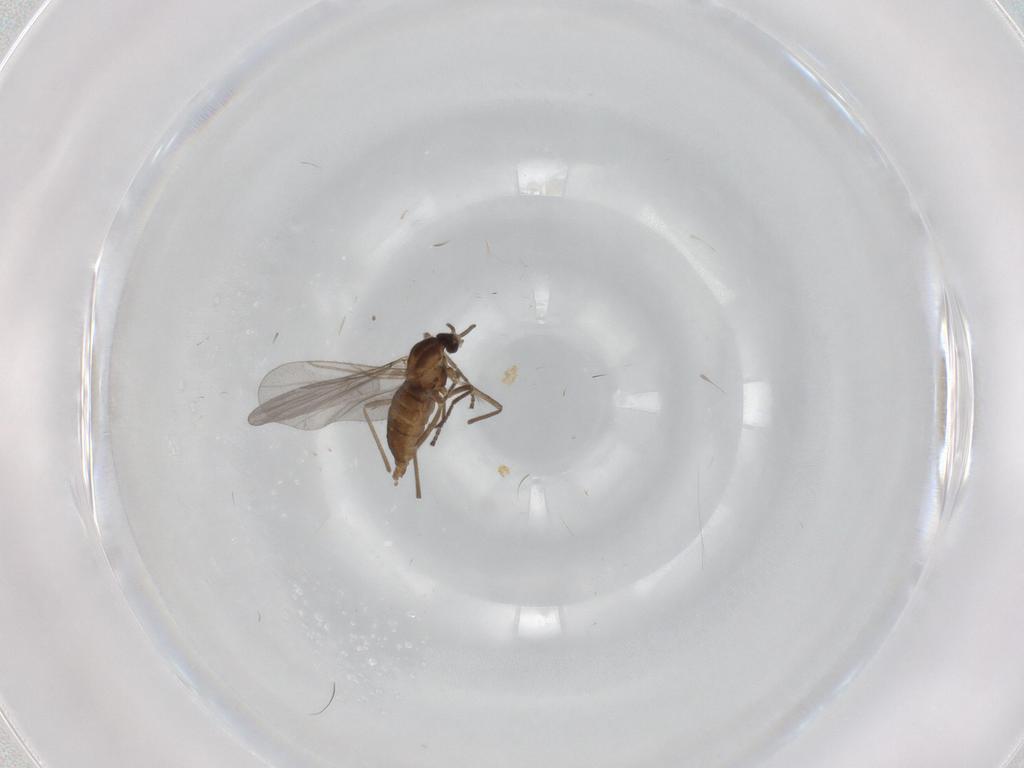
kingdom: Animalia
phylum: Arthropoda
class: Insecta
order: Diptera
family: Cecidomyiidae
